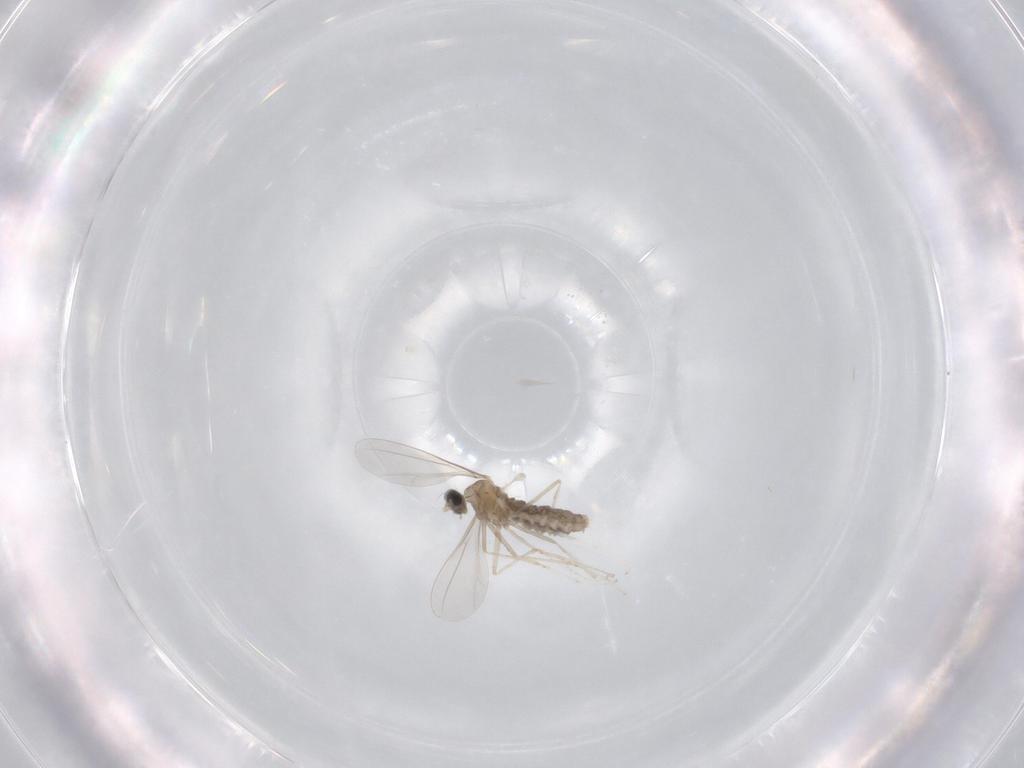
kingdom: Animalia
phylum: Arthropoda
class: Insecta
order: Diptera
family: Cecidomyiidae
